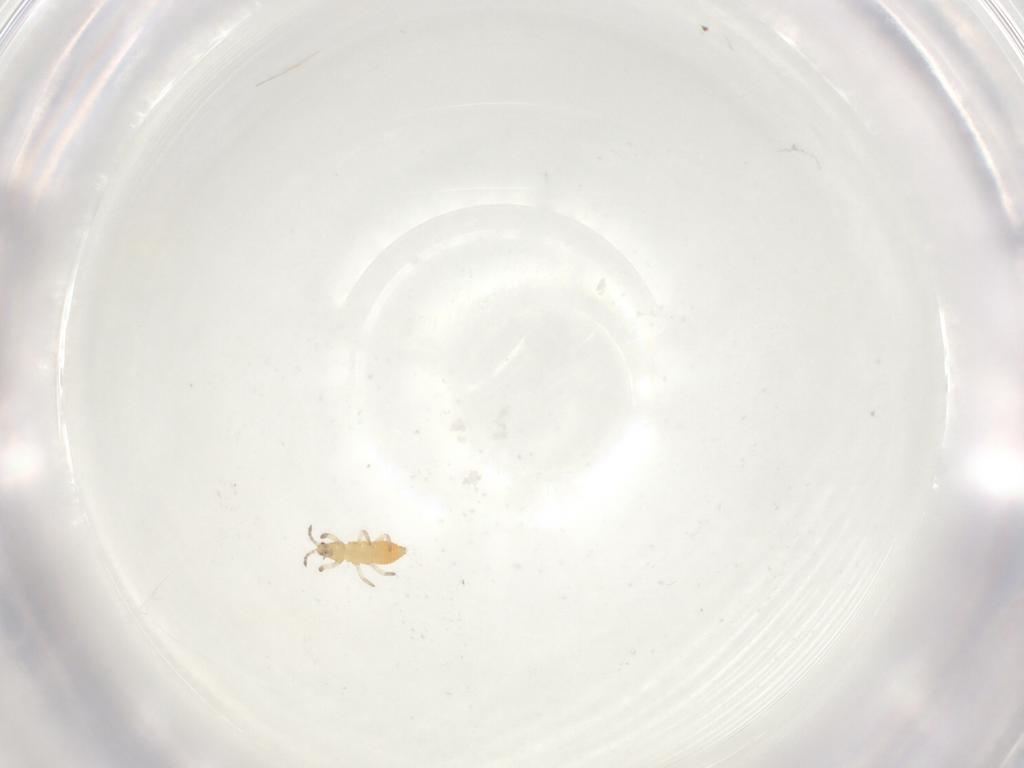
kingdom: Animalia
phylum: Arthropoda
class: Insecta
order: Thysanoptera
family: Aeolothripidae
